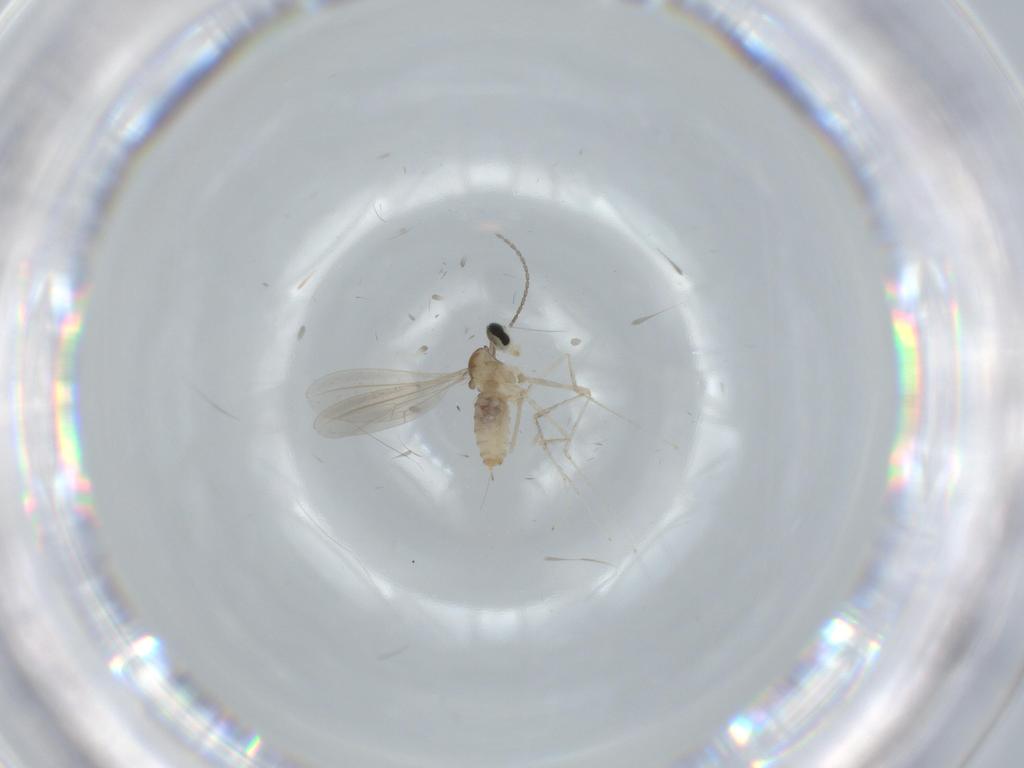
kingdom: Animalia
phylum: Arthropoda
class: Insecta
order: Diptera
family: Cecidomyiidae
